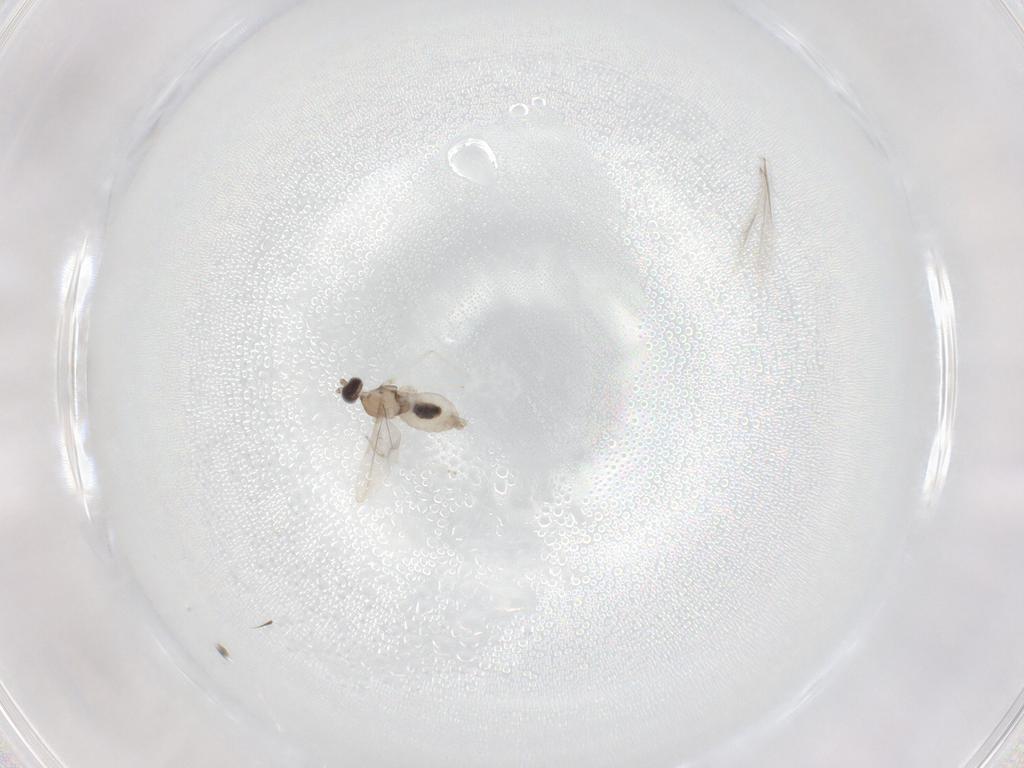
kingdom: Animalia
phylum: Arthropoda
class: Insecta
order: Diptera
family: Cecidomyiidae
